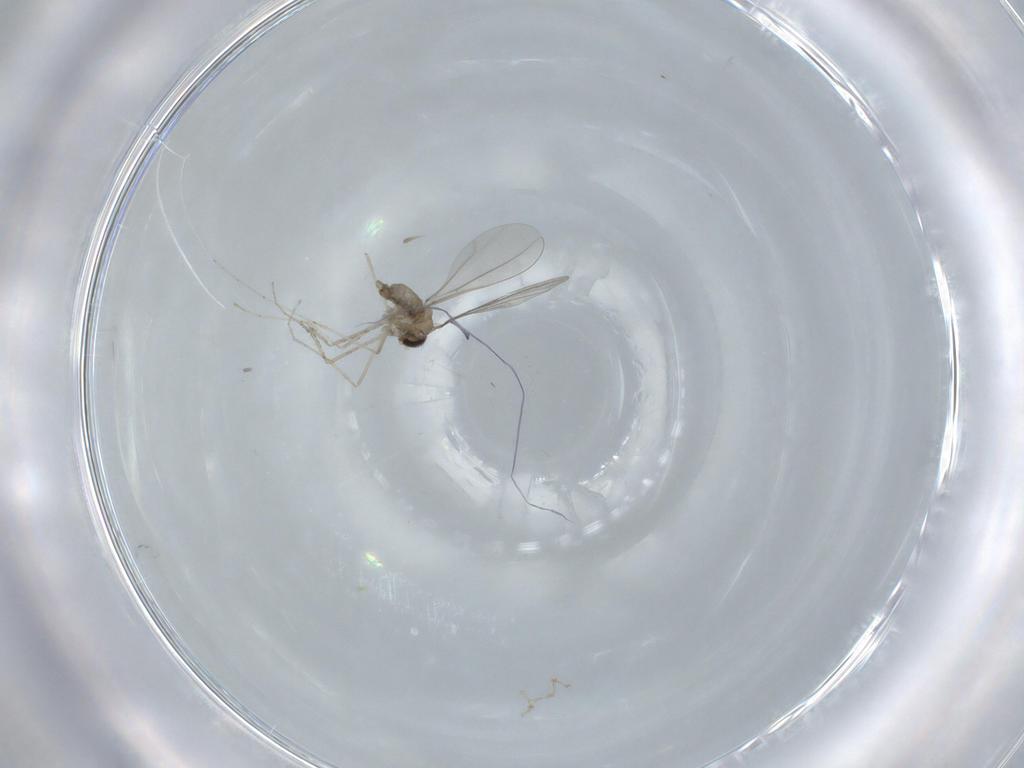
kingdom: Animalia
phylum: Arthropoda
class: Insecta
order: Diptera
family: Cecidomyiidae
